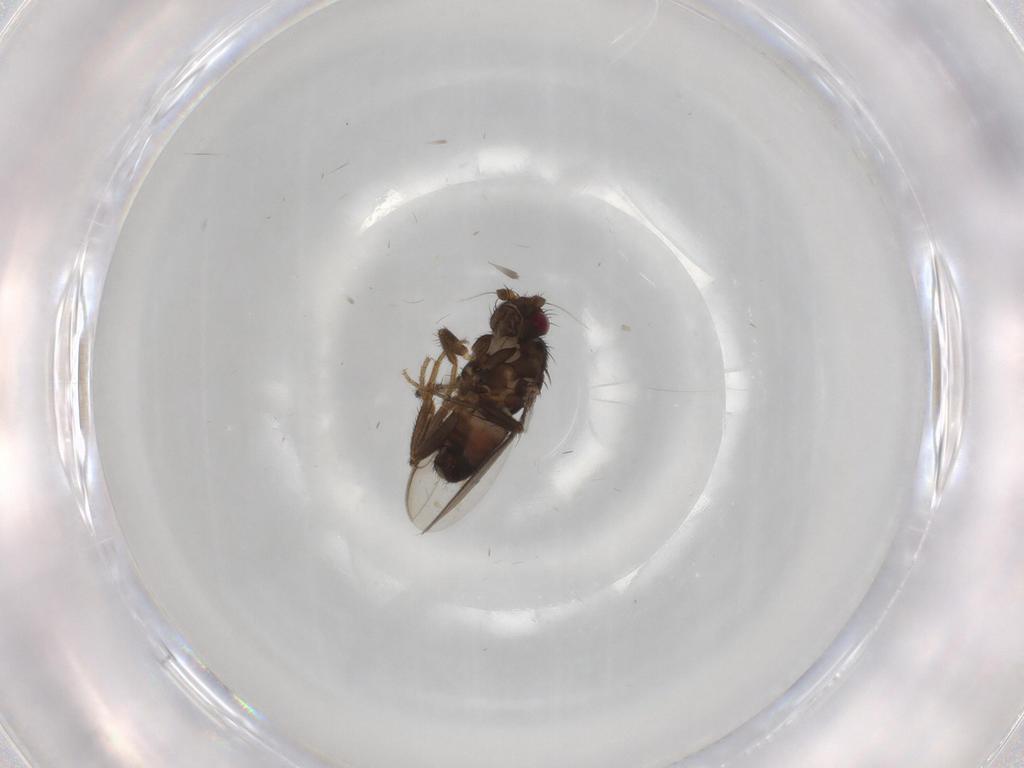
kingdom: Animalia
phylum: Arthropoda
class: Insecta
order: Diptera
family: Sphaeroceridae
